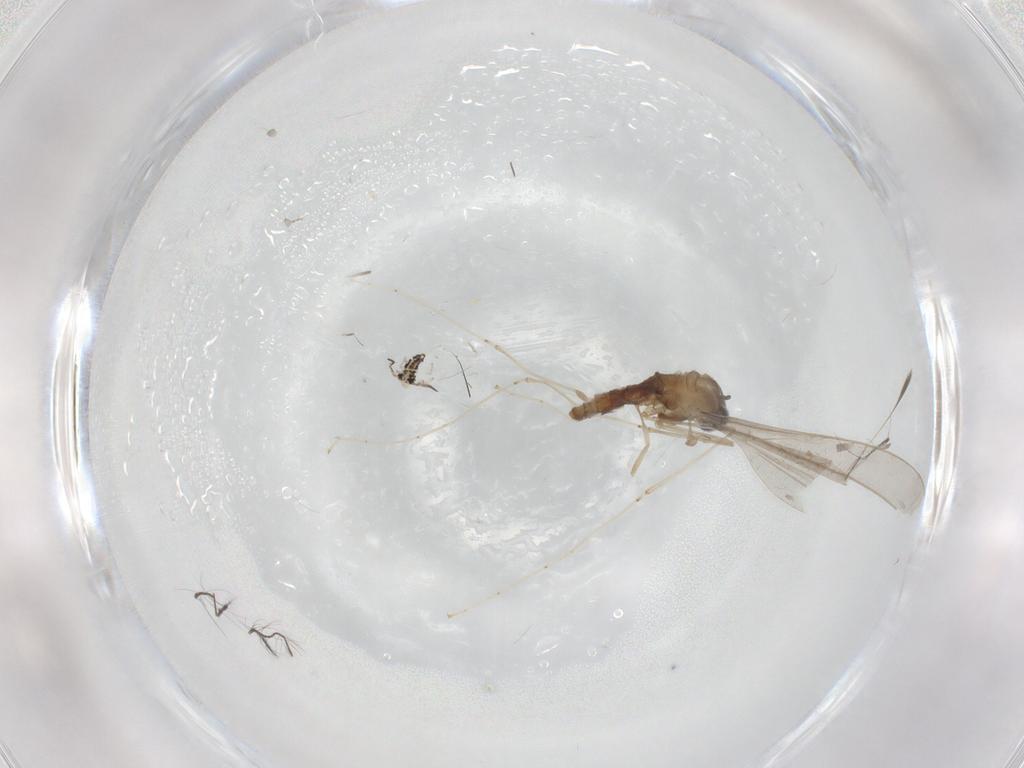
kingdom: Animalia
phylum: Arthropoda
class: Insecta
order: Diptera
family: Cecidomyiidae
